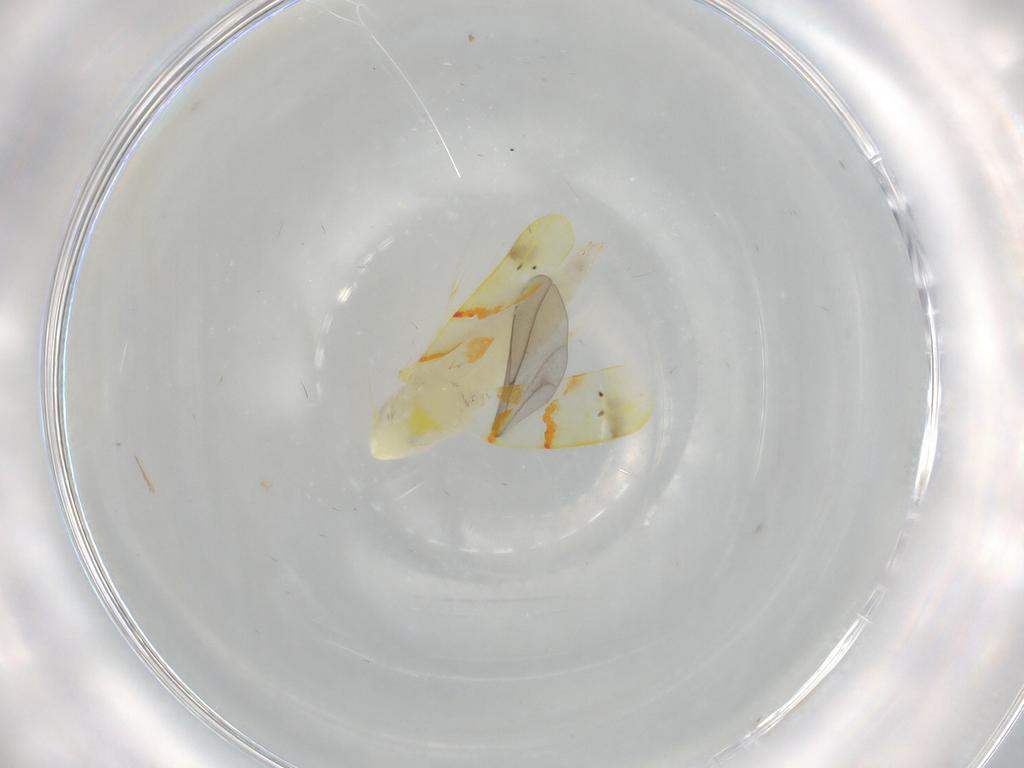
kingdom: Animalia
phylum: Arthropoda
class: Insecta
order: Hemiptera
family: Cicadellidae
